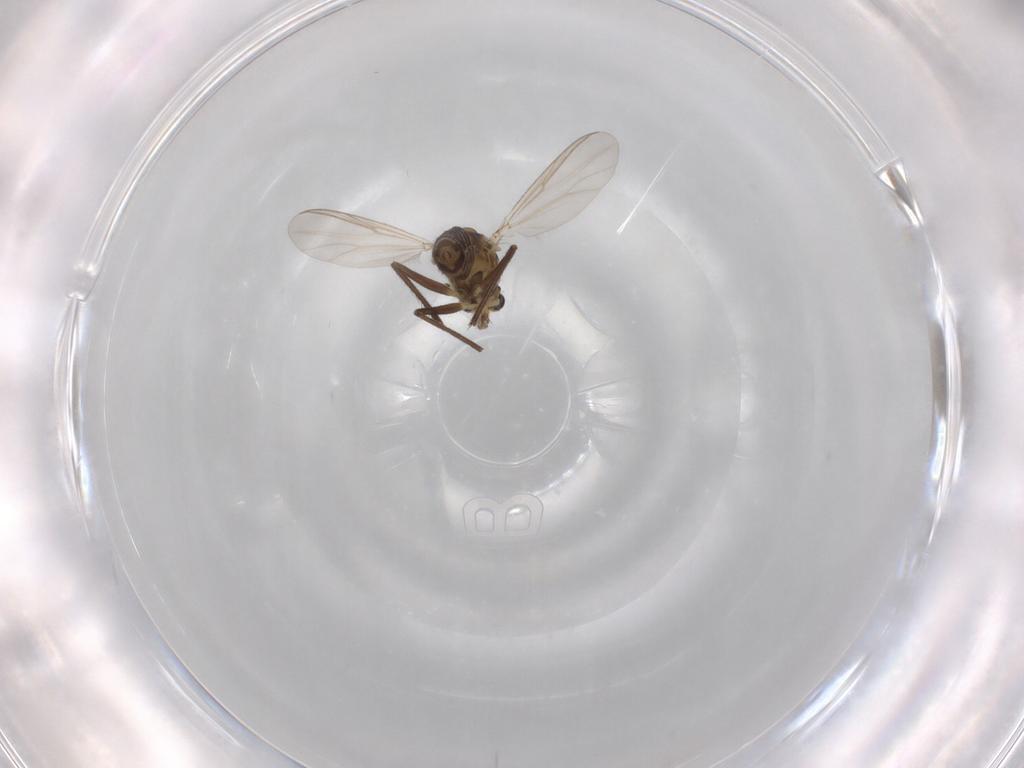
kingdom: Animalia
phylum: Arthropoda
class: Insecta
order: Diptera
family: Chironomidae
